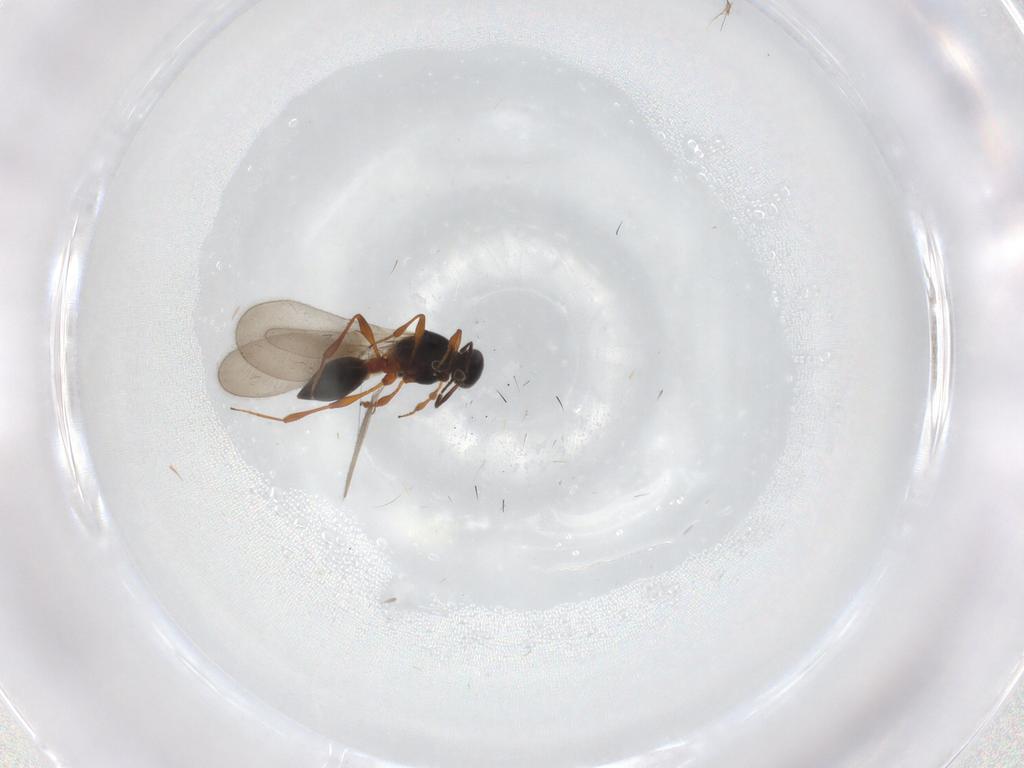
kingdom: Animalia
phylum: Arthropoda
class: Insecta
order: Hymenoptera
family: Platygastridae
